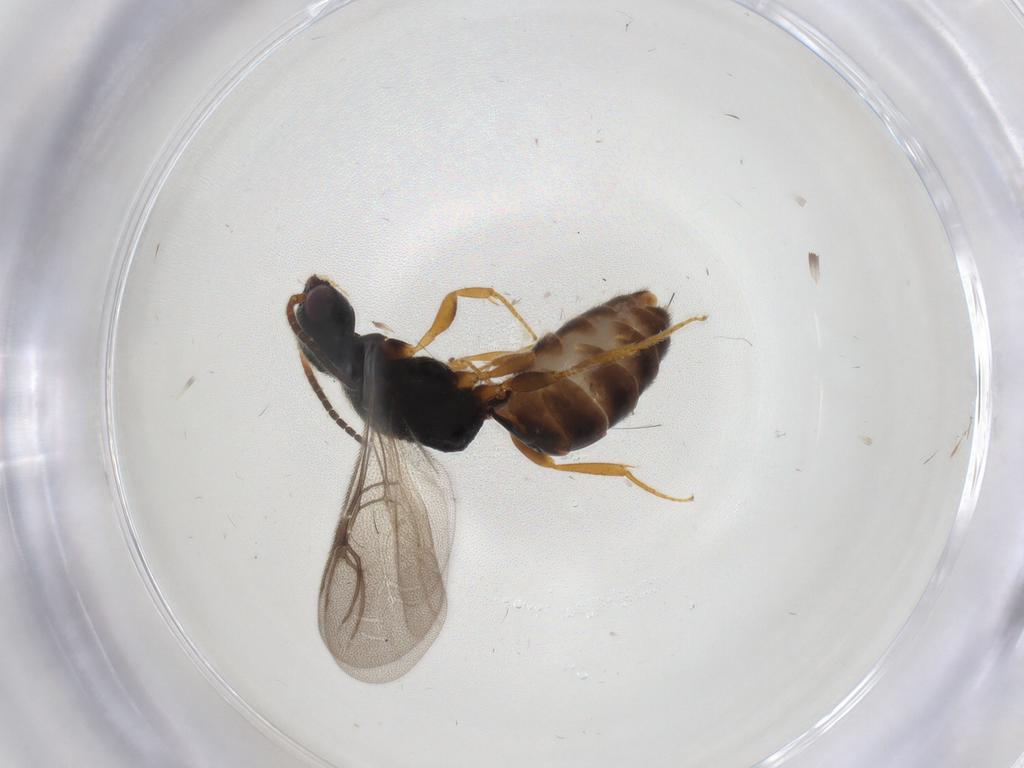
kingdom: Animalia
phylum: Arthropoda
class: Insecta
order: Hymenoptera
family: Bethylidae
